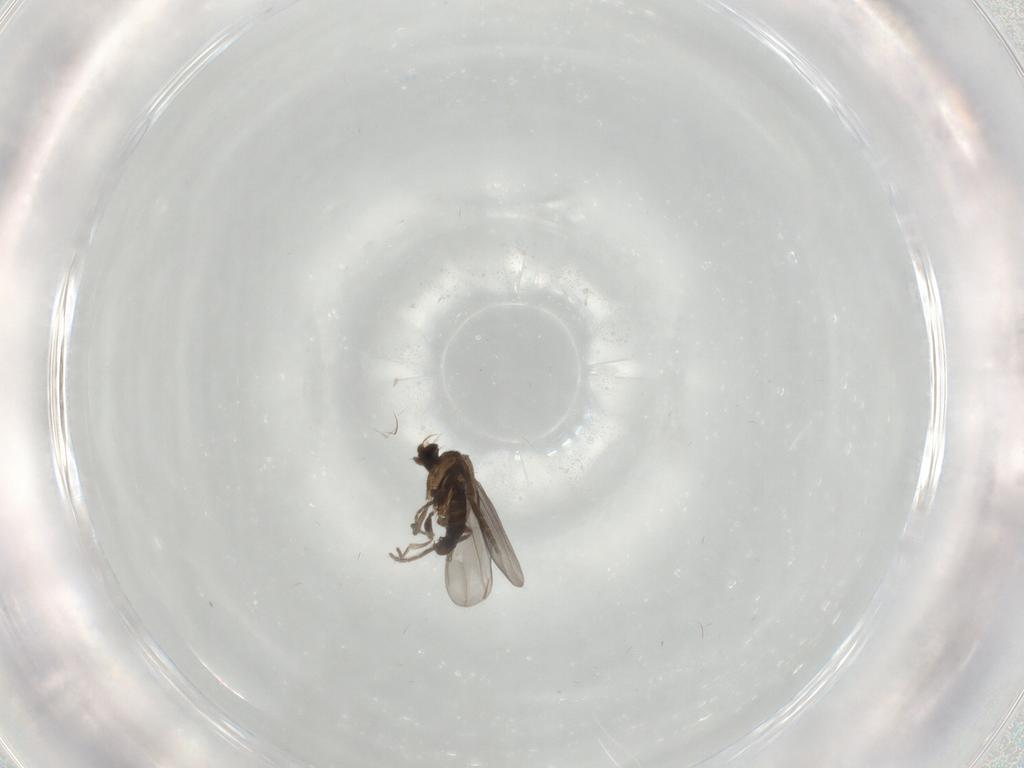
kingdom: Animalia
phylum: Arthropoda
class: Insecta
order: Diptera
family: Phoridae
